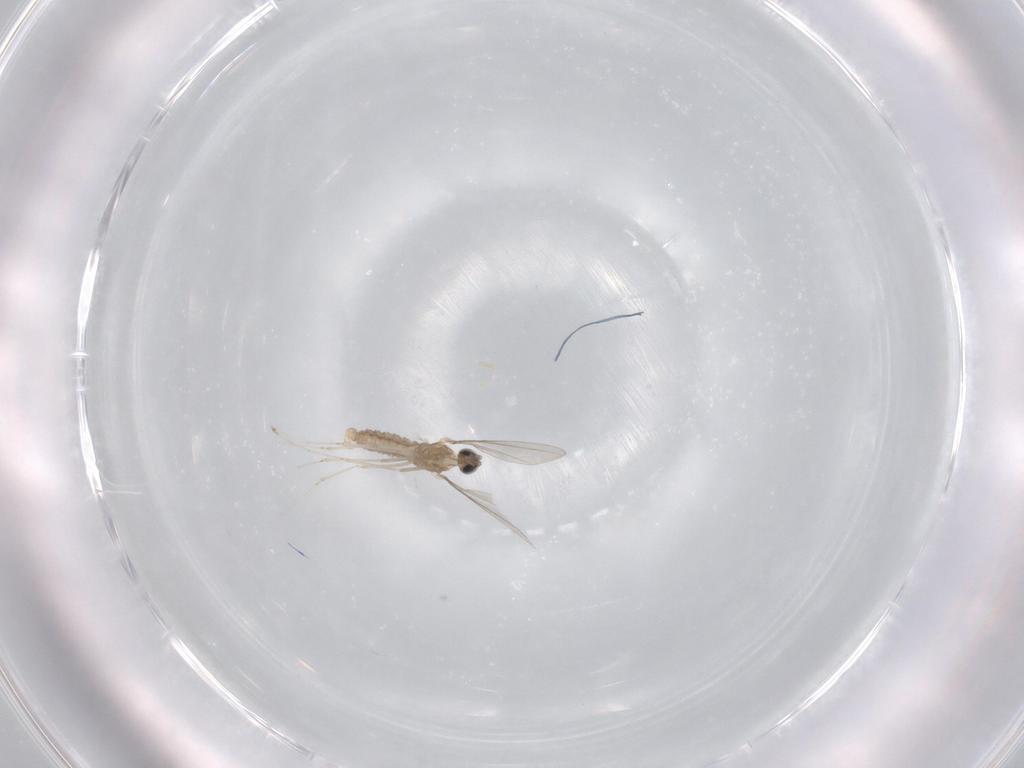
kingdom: Animalia
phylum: Arthropoda
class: Insecta
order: Diptera
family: Cecidomyiidae
